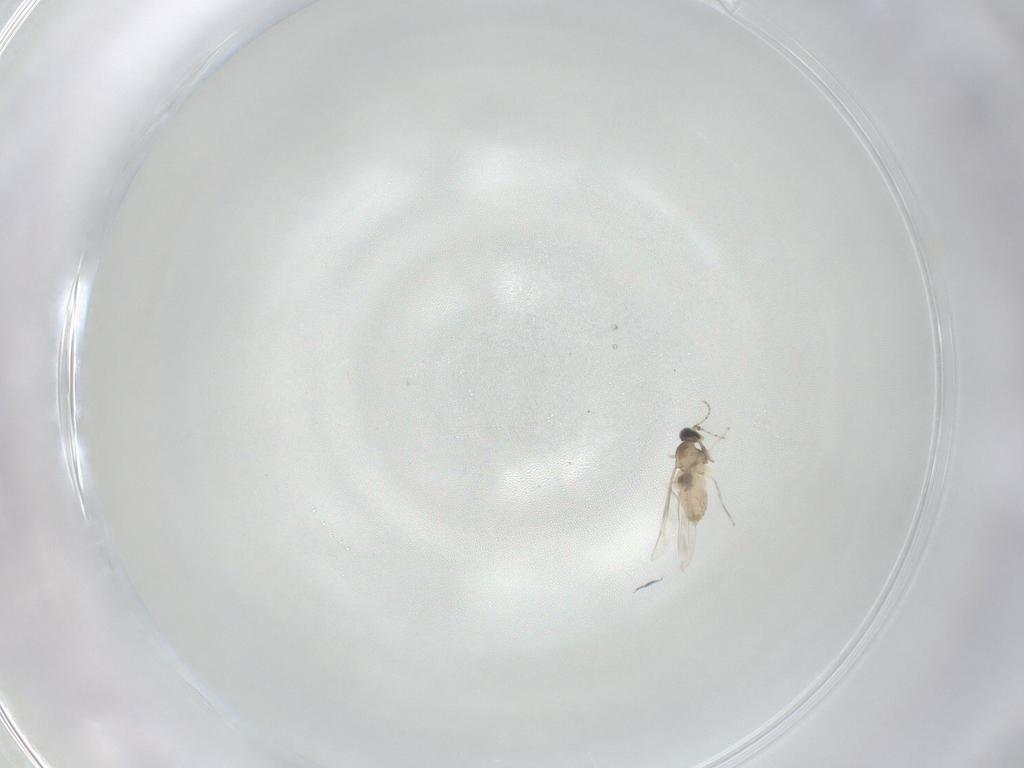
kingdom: Animalia
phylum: Arthropoda
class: Insecta
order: Diptera
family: Cecidomyiidae
